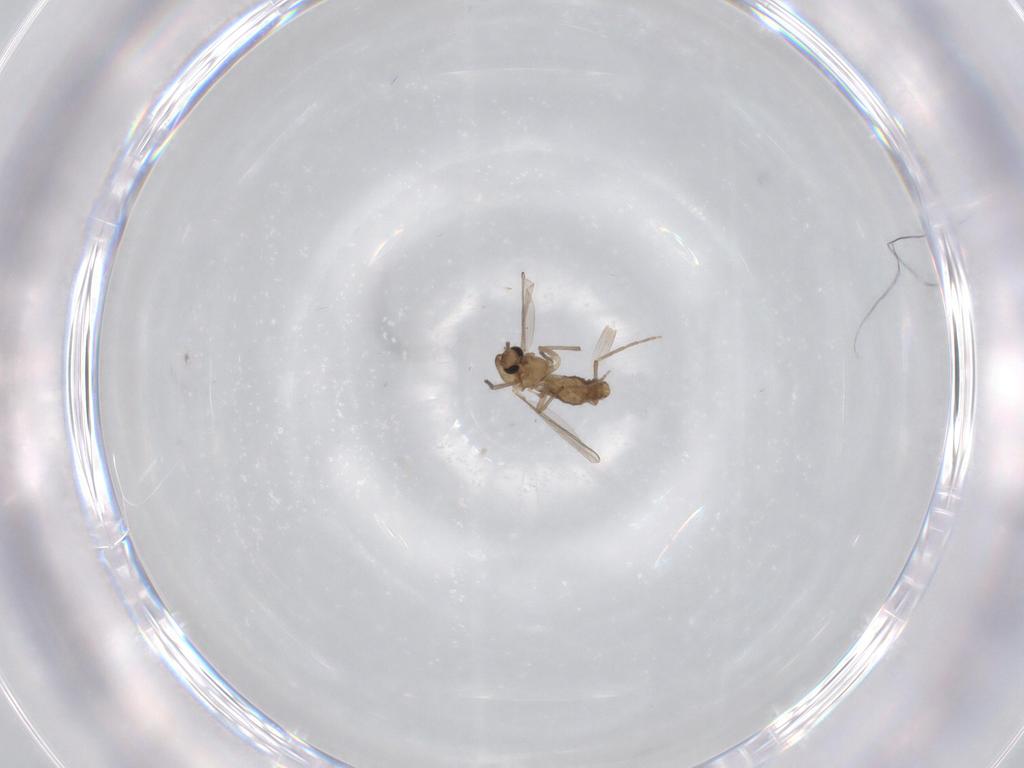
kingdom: Animalia
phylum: Arthropoda
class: Insecta
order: Diptera
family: Chironomidae
